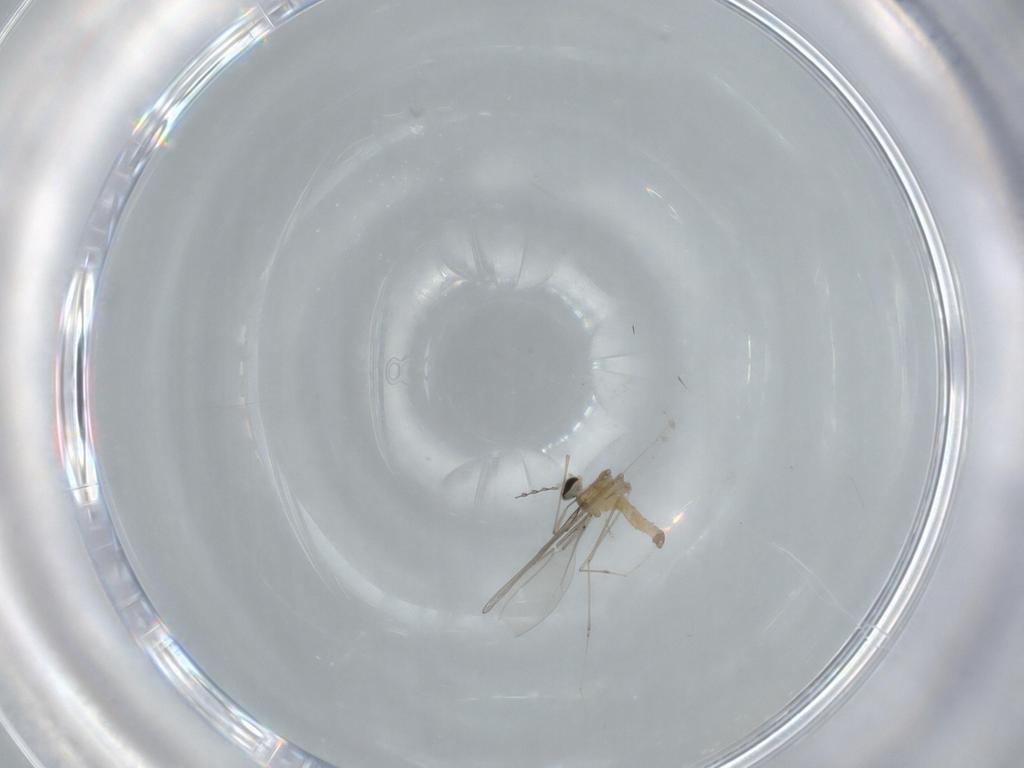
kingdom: Animalia
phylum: Arthropoda
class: Insecta
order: Diptera
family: Cecidomyiidae
